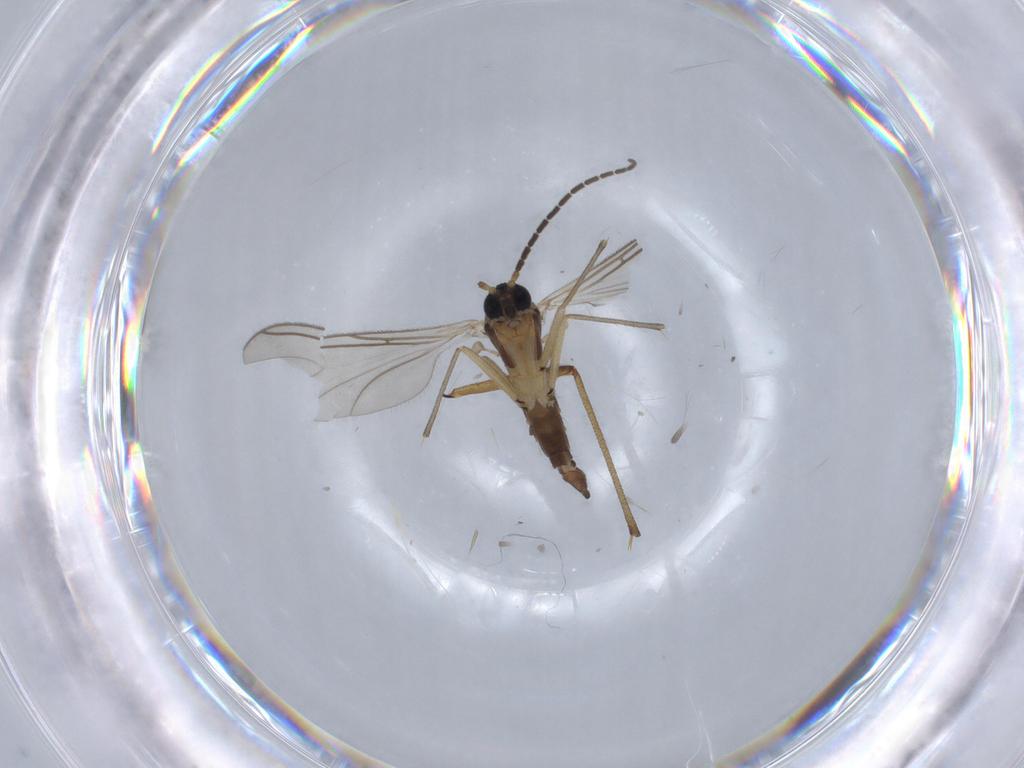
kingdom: Animalia
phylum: Arthropoda
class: Insecta
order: Diptera
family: Sciaridae
